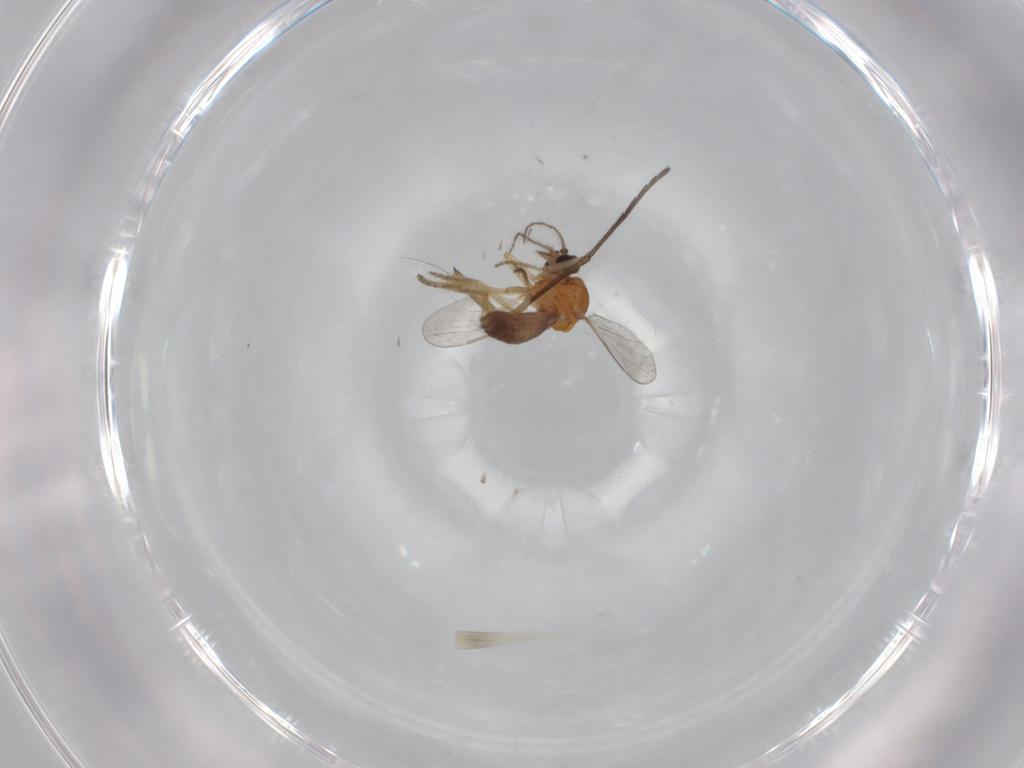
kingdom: Animalia
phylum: Arthropoda
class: Insecta
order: Diptera
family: Sciaridae
